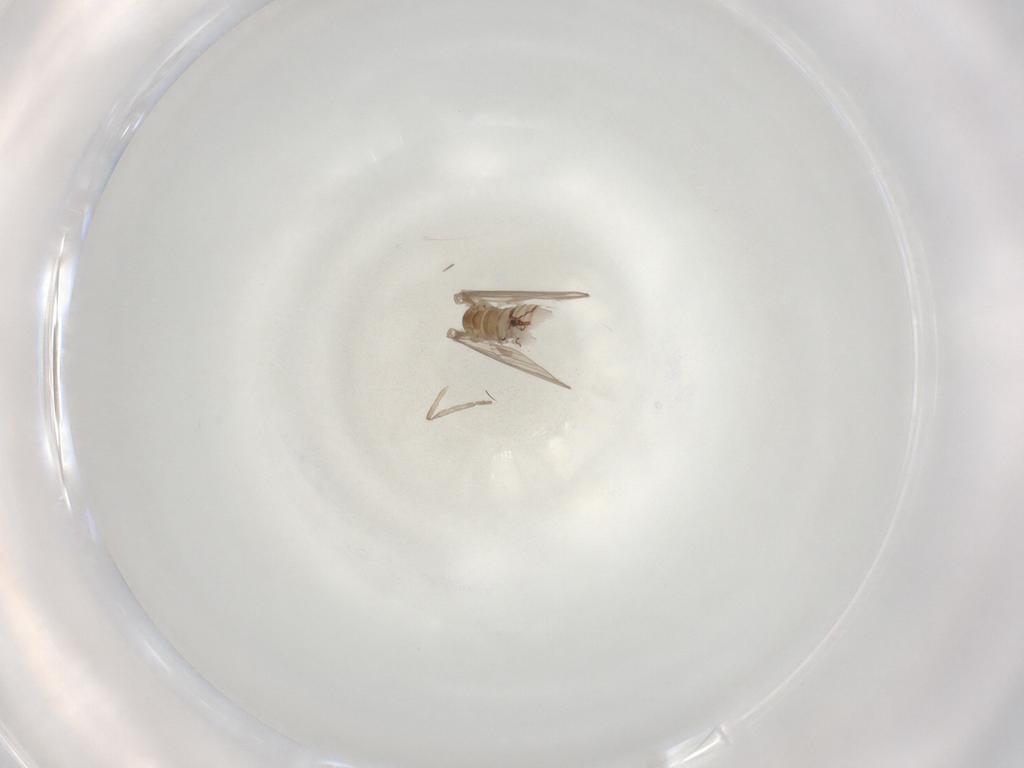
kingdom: Animalia
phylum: Arthropoda
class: Insecta
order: Diptera
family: Psychodidae
